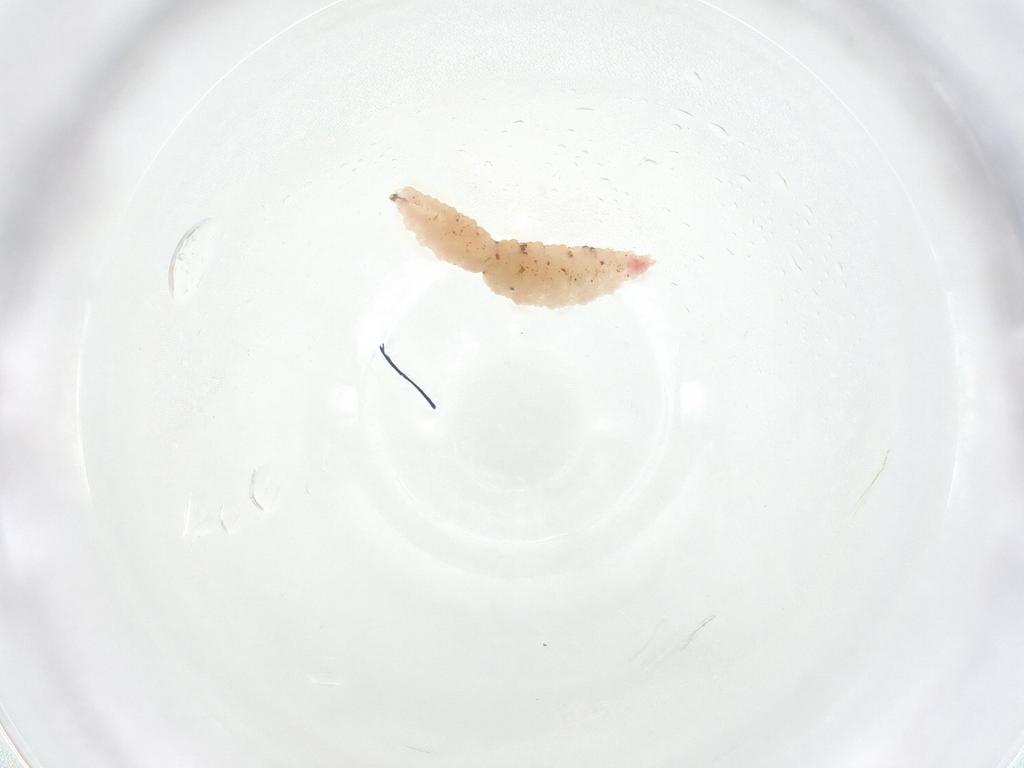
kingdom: Animalia
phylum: Arthropoda
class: Insecta
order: Diptera
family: Cecidomyiidae
